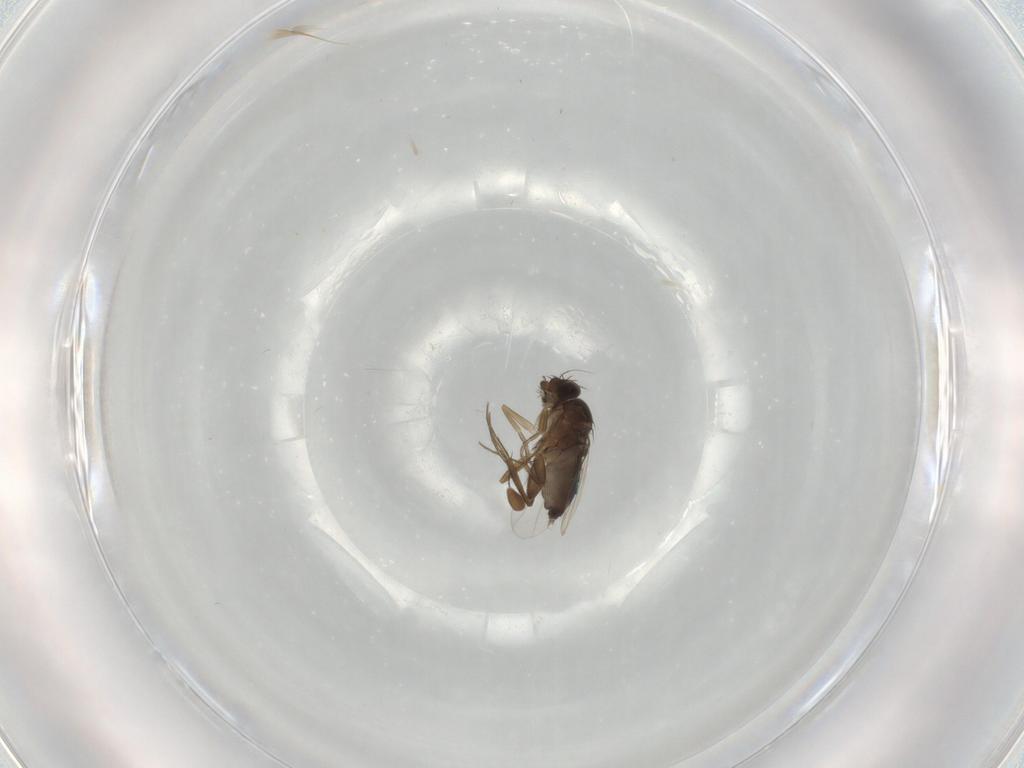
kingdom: Animalia
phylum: Arthropoda
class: Insecta
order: Diptera
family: Phoridae
